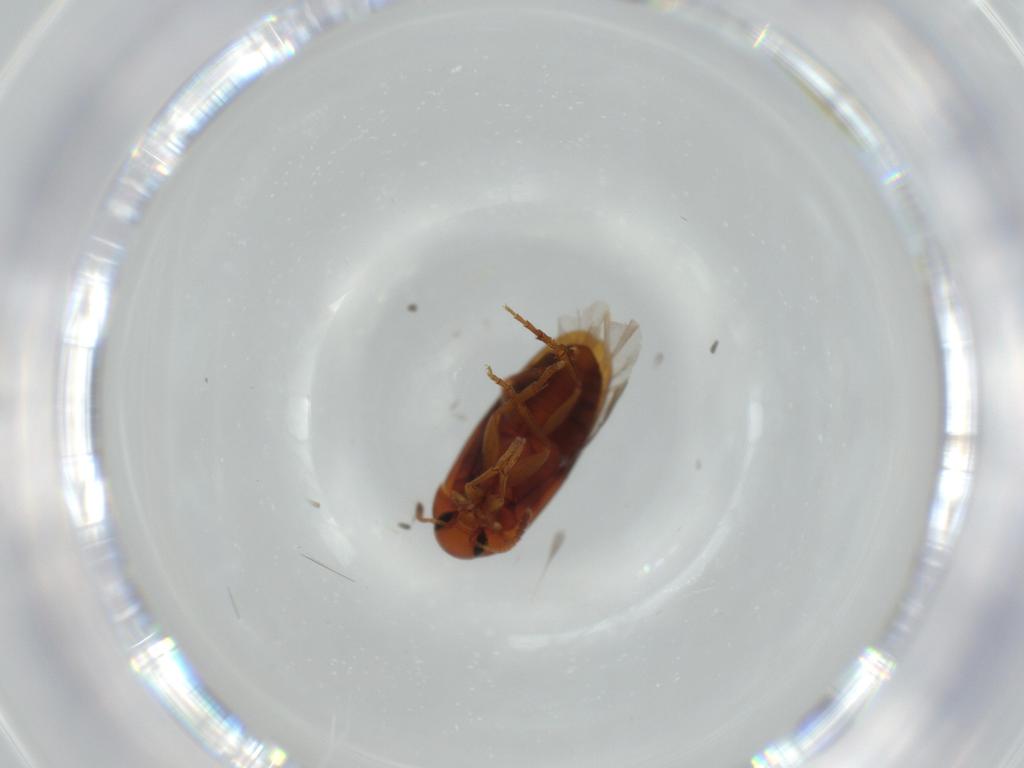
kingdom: Animalia
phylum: Arthropoda
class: Insecta
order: Coleoptera
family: Scraptiidae
